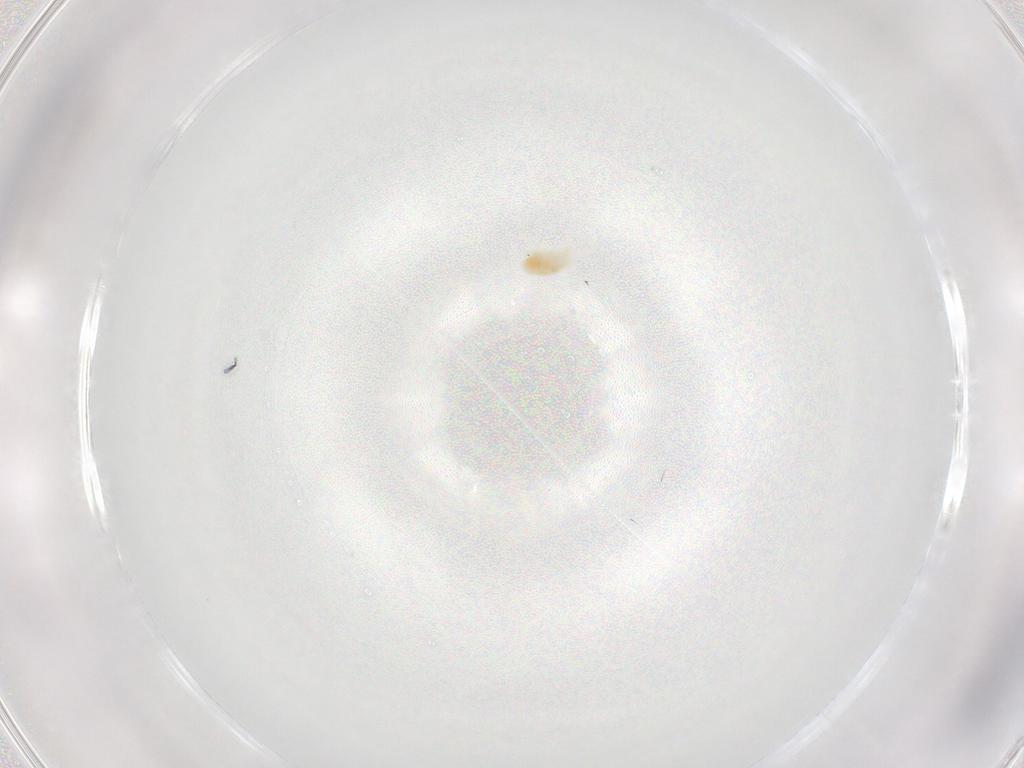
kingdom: Animalia
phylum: Arthropoda
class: Arachnida
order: Trombidiformes
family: Eupodidae
